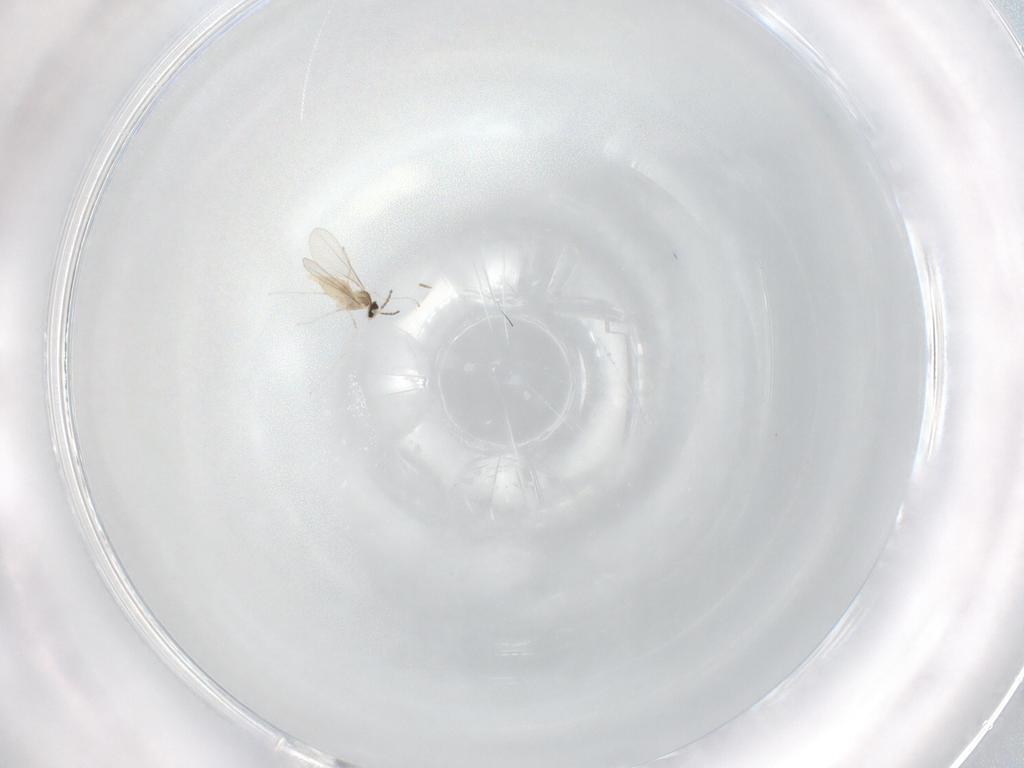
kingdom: Animalia
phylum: Arthropoda
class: Insecta
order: Diptera
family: Cecidomyiidae
